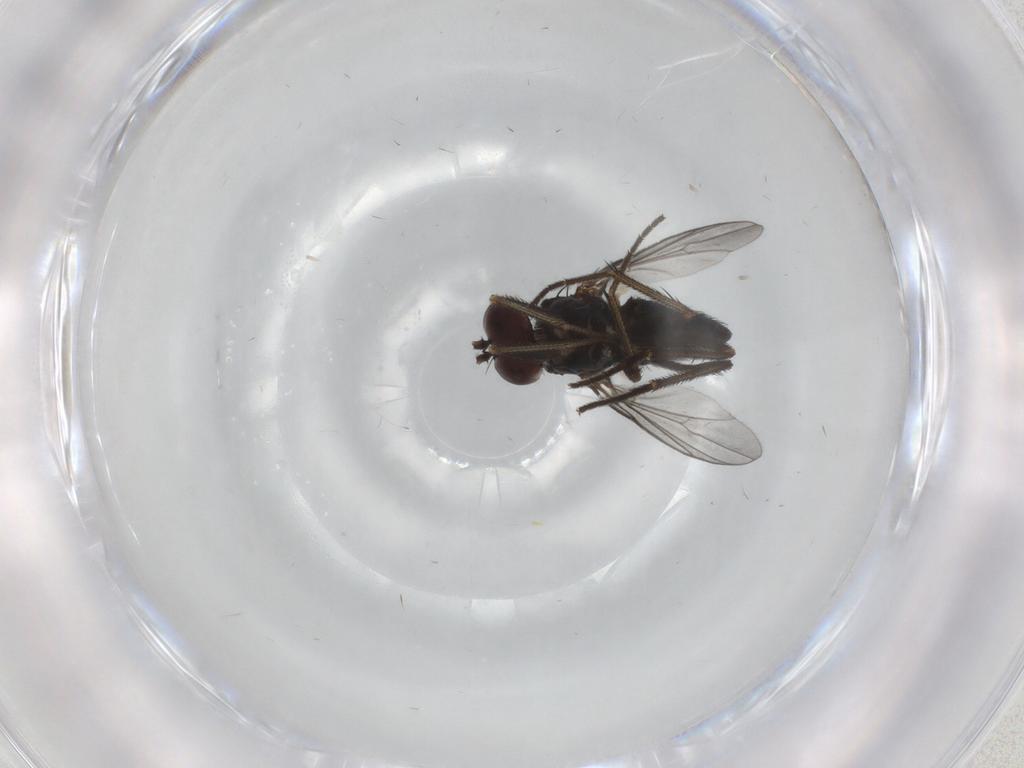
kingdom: Animalia
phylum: Arthropoda
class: Insecta
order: Diptera
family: Dolichopodidae
